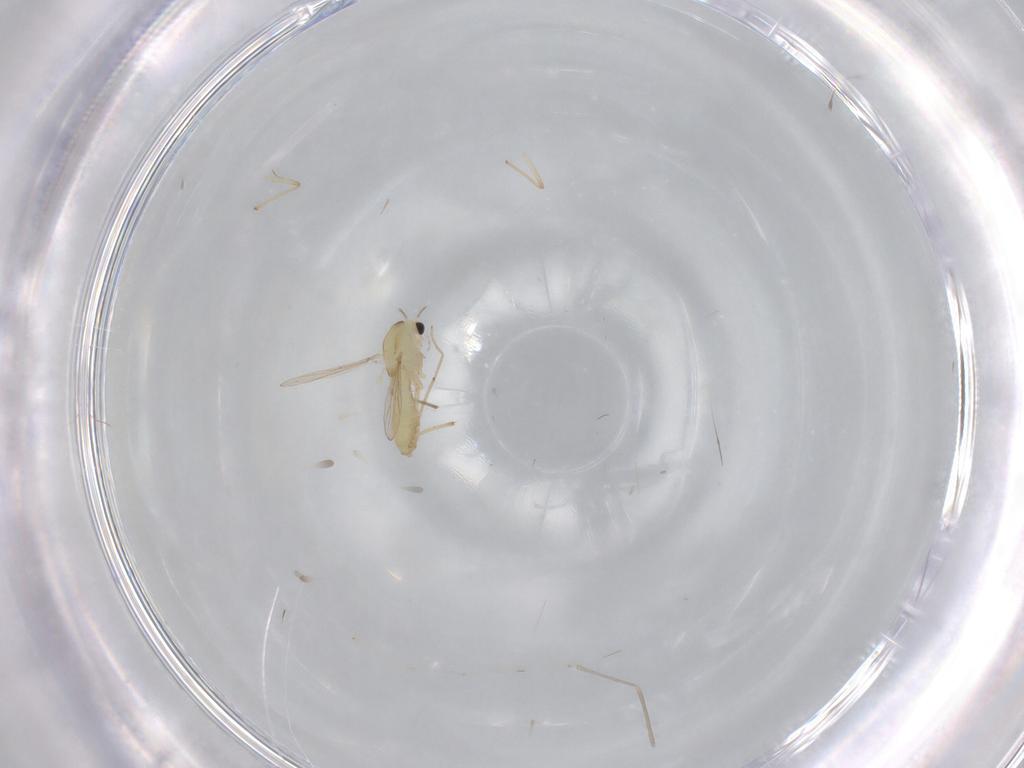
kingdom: Animalia
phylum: Arthropoda
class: Insecta
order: Diptera
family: Chironomidae
